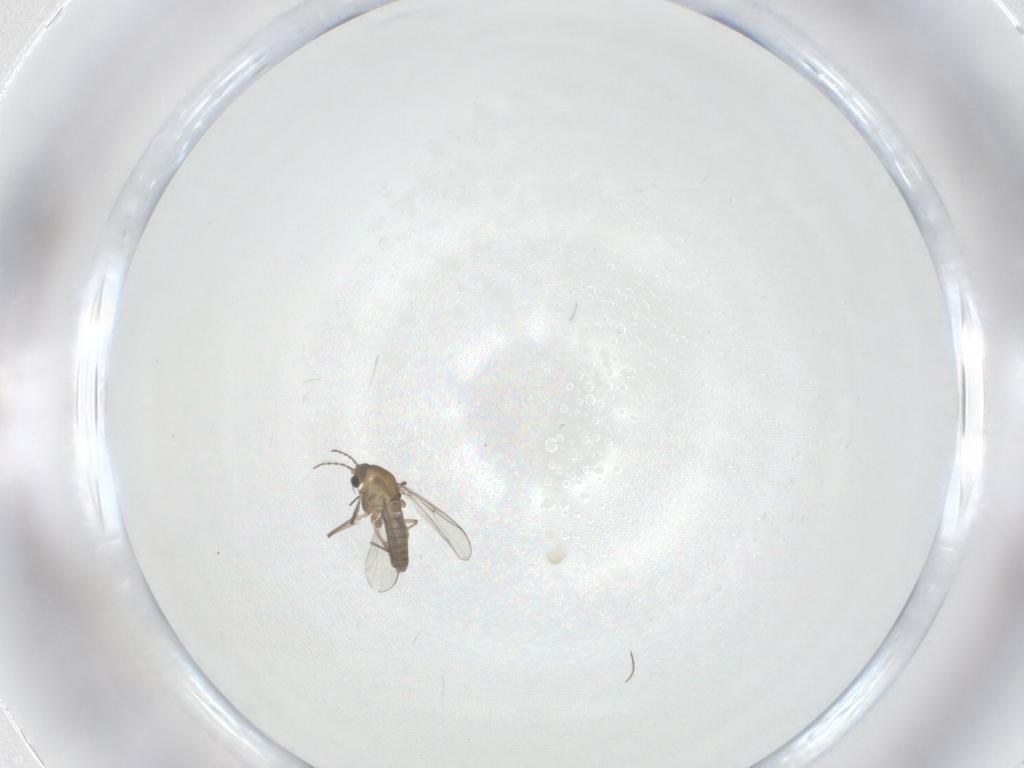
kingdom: Animalia
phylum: Arthropoda
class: Insecta
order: Diptera
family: Chironomidae
